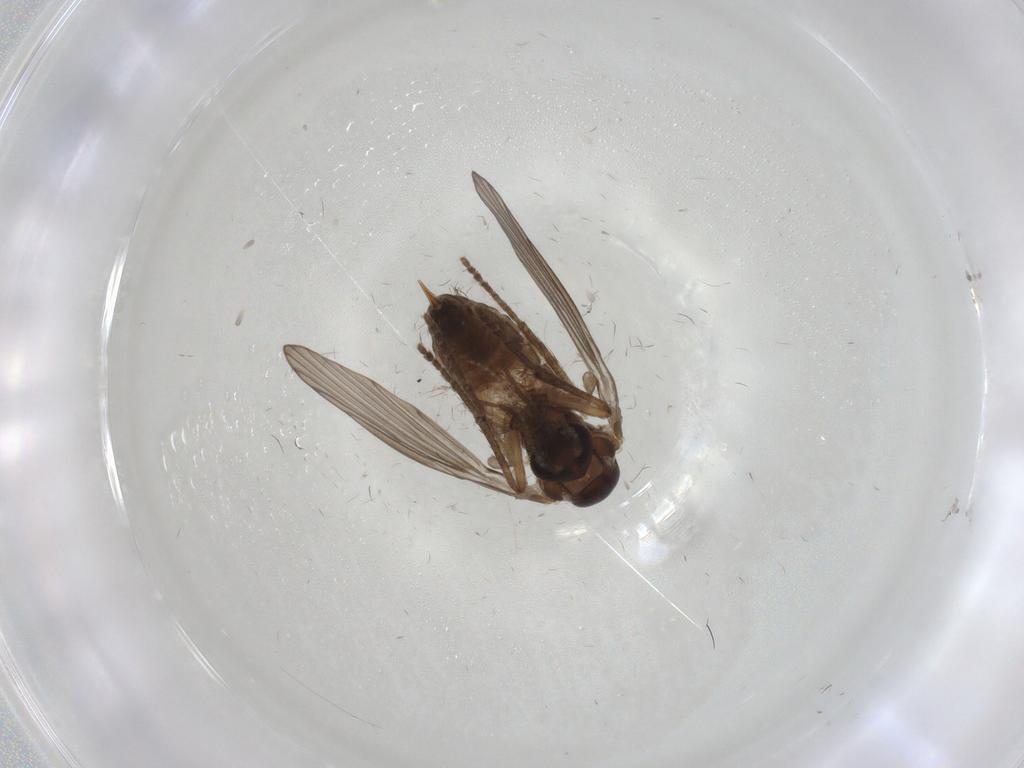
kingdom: Animalia
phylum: Arthropoda
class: Insecta
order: Diptera
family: Psychodidae
